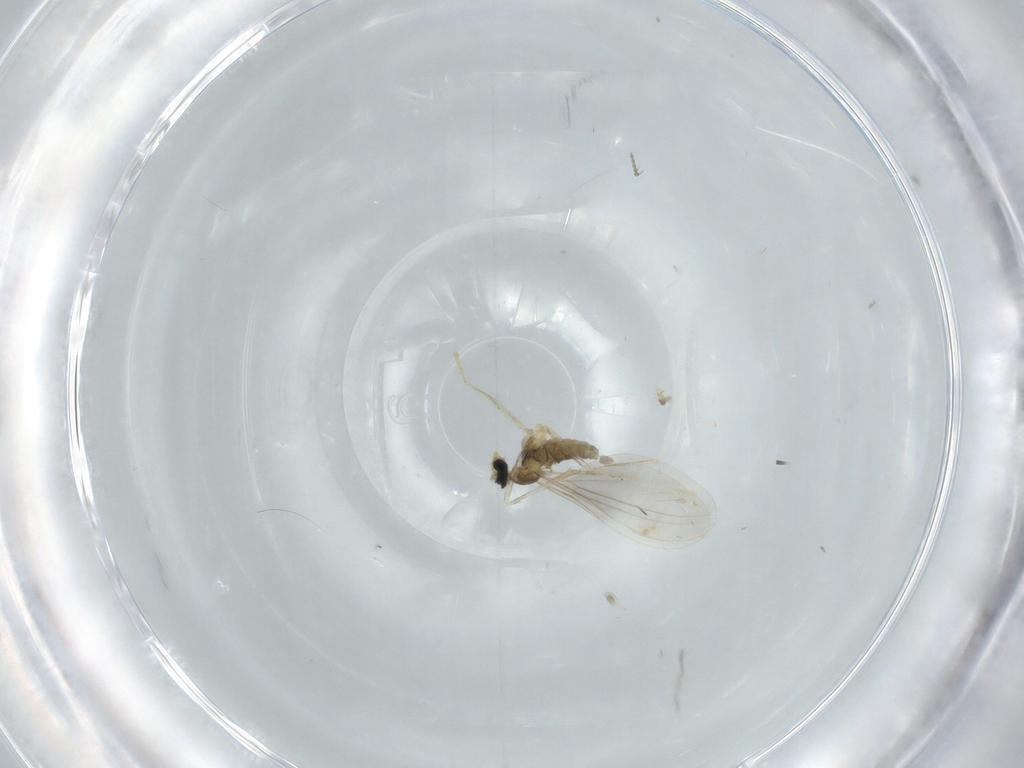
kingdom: Animalia
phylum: Arthropoda
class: Insecta
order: Diptera
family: Cecidomyiidae
